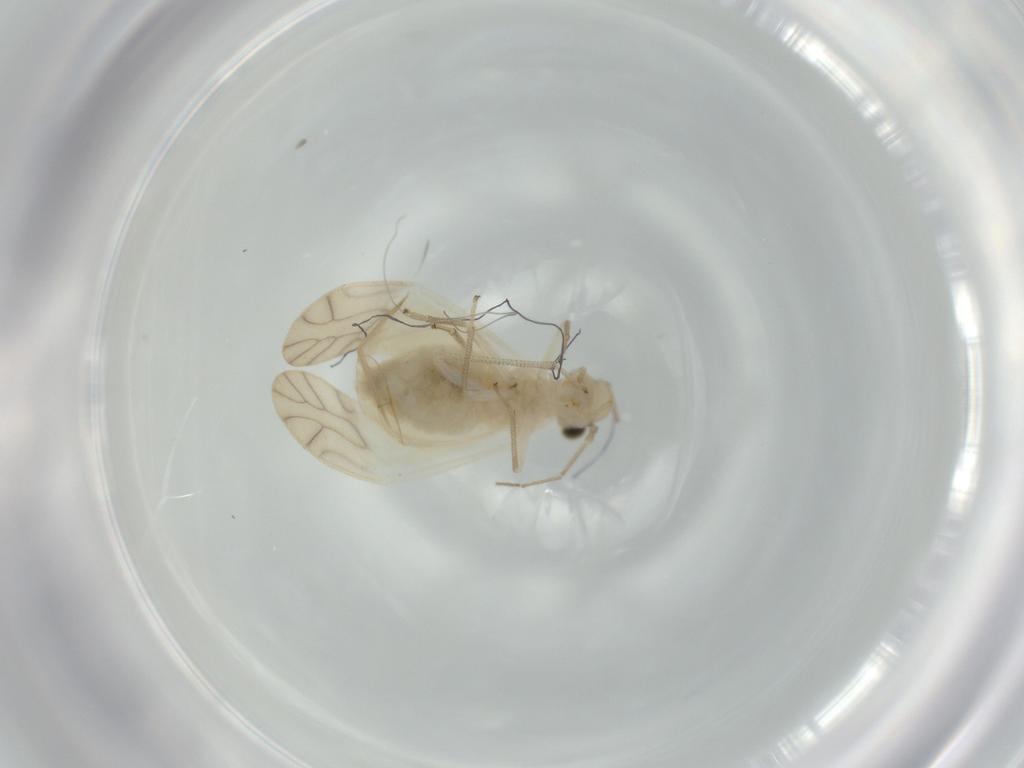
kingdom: Animalia
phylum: Arthropoda
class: Insecta
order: Psocodea
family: Caeciliusidae
